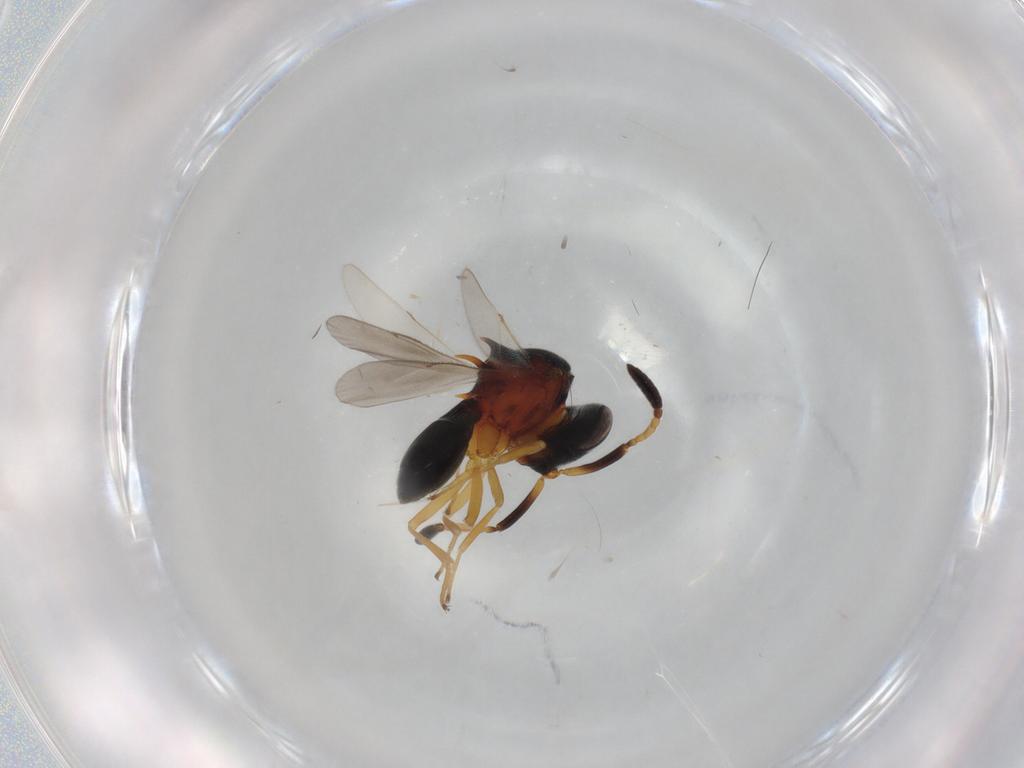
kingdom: Animalia
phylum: Arthropoda
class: Insecta
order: Hymenoptera
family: Scelionidae
